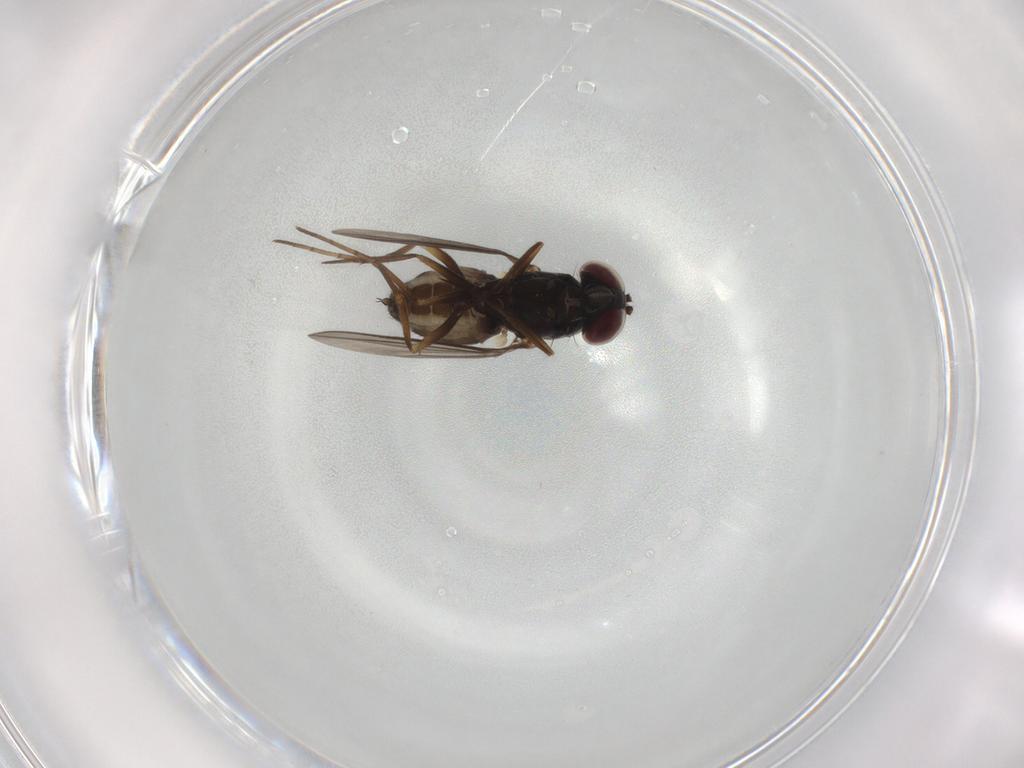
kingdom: Animalia
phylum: Arthropoda
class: Insecta
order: Diptera
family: Dolichopodidae
